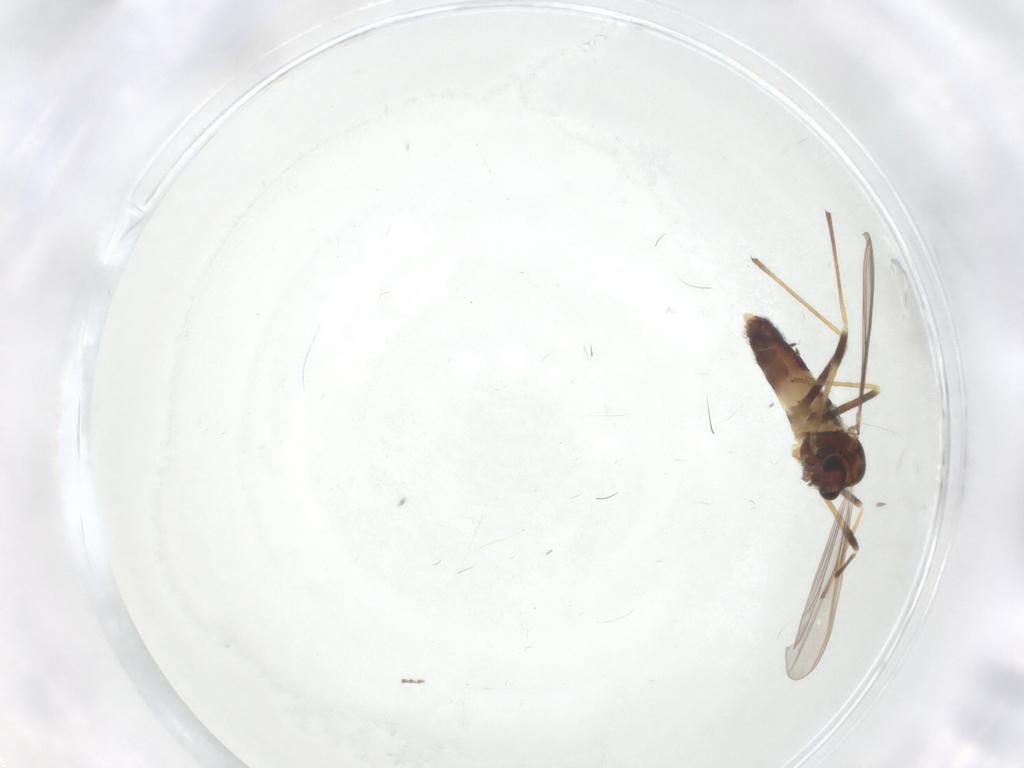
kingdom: Animalia
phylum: Arthropoda
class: Insecta
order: Diptera
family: Chironomidae
